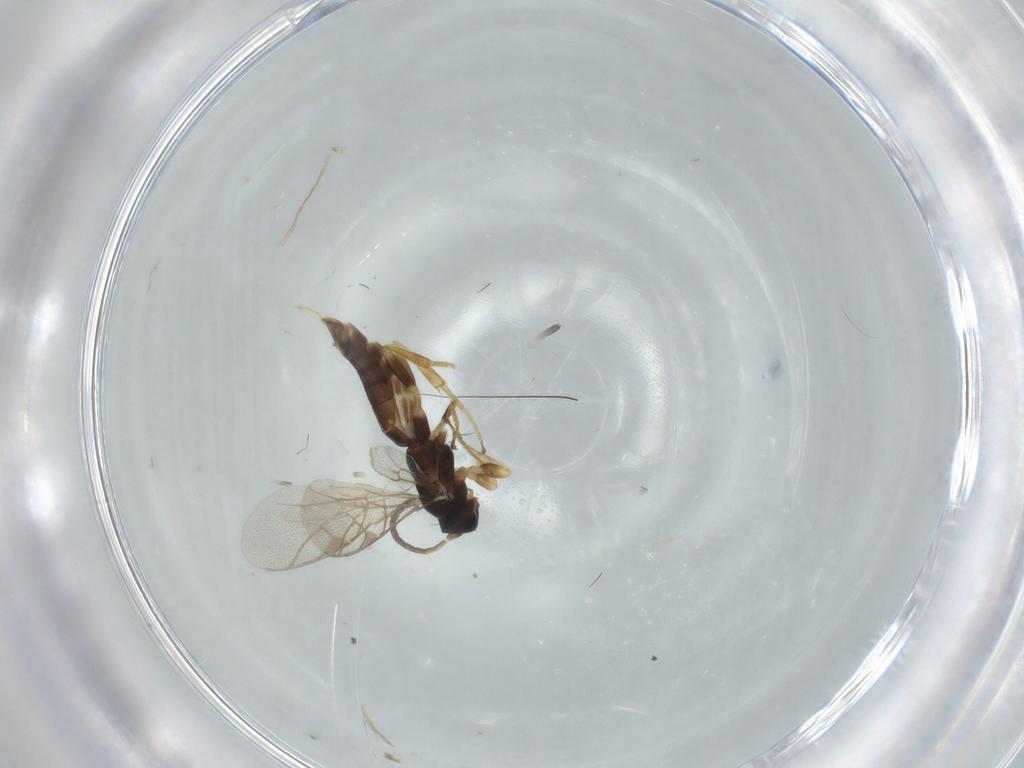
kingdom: Animalia
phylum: Arthropoda
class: Insecta
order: Hymenoptera
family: Ichneumonidae
